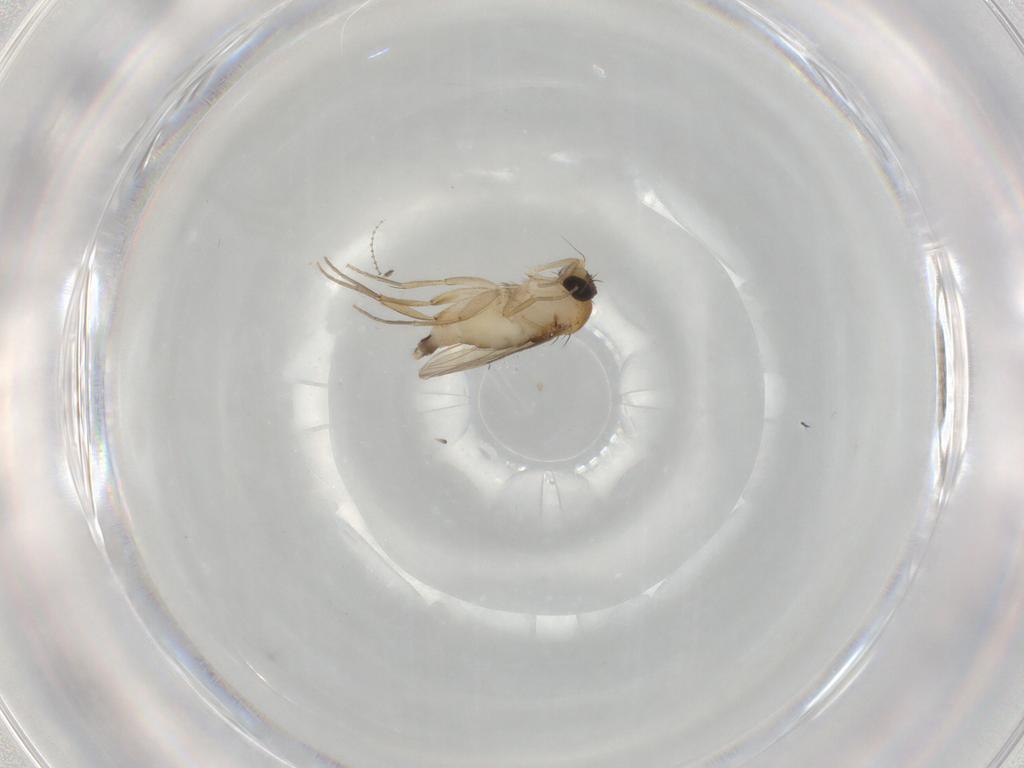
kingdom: Animalia
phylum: Arthropoda
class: Insecta
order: Diptera
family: Phoridae
